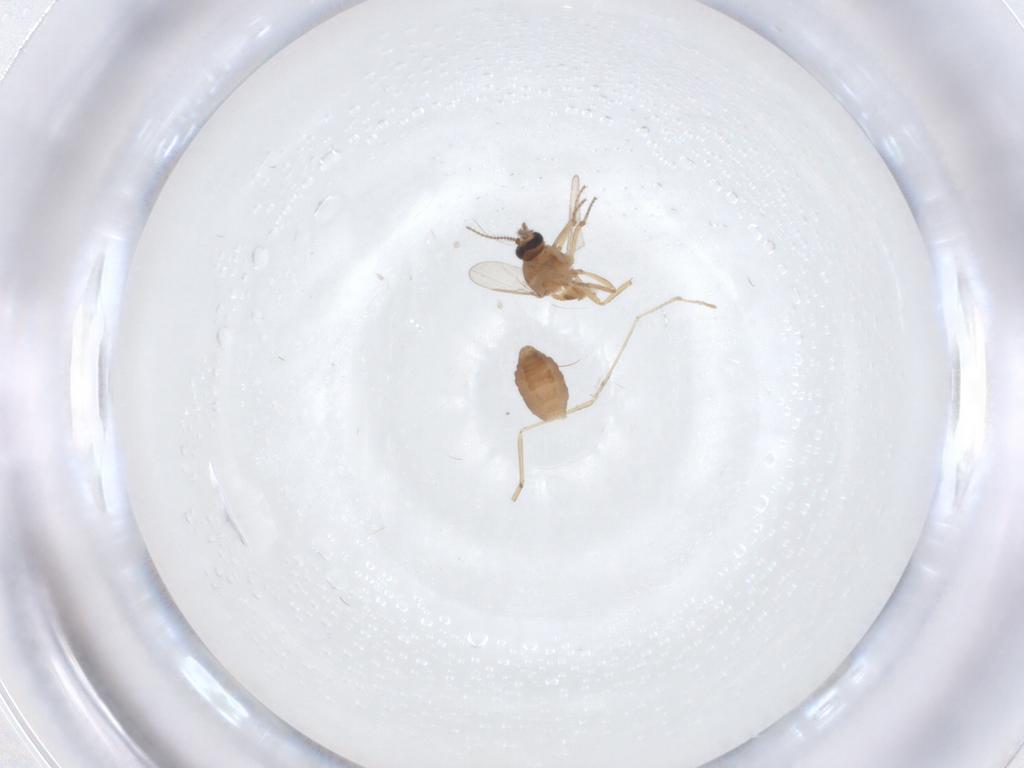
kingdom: Animalia
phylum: Arthropoda
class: Insecta
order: Diptera
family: Ceratopogonidae
